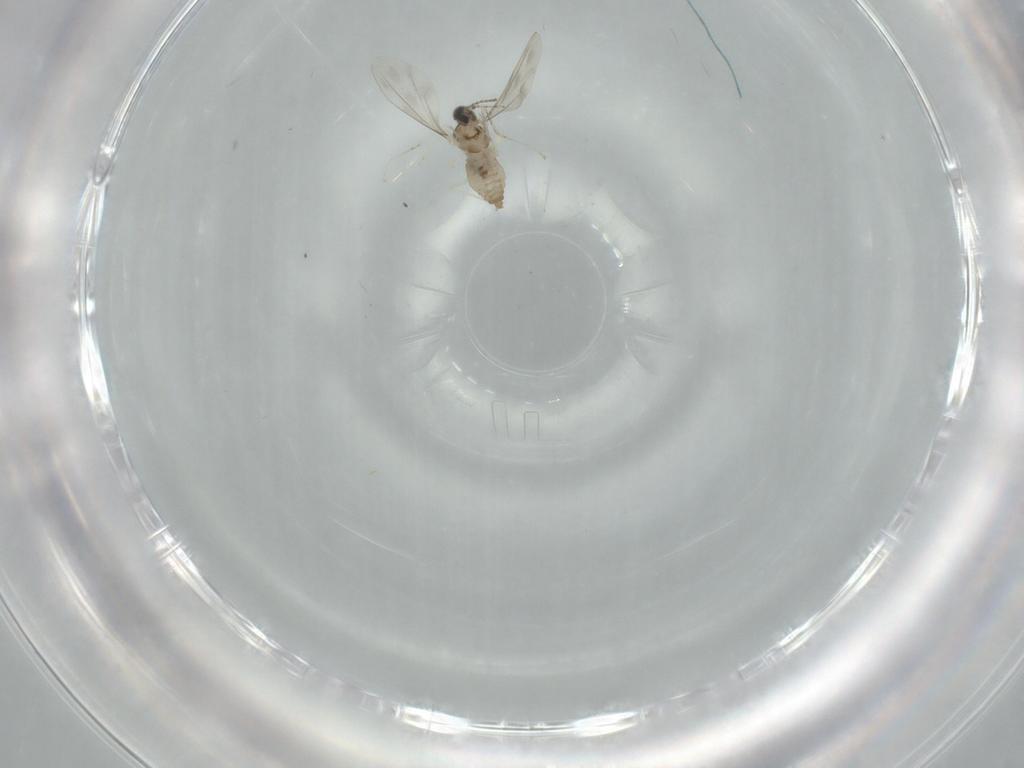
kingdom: Animalia
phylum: Arthropoda
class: Insecta
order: Diptera
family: Cecidomyiidae
